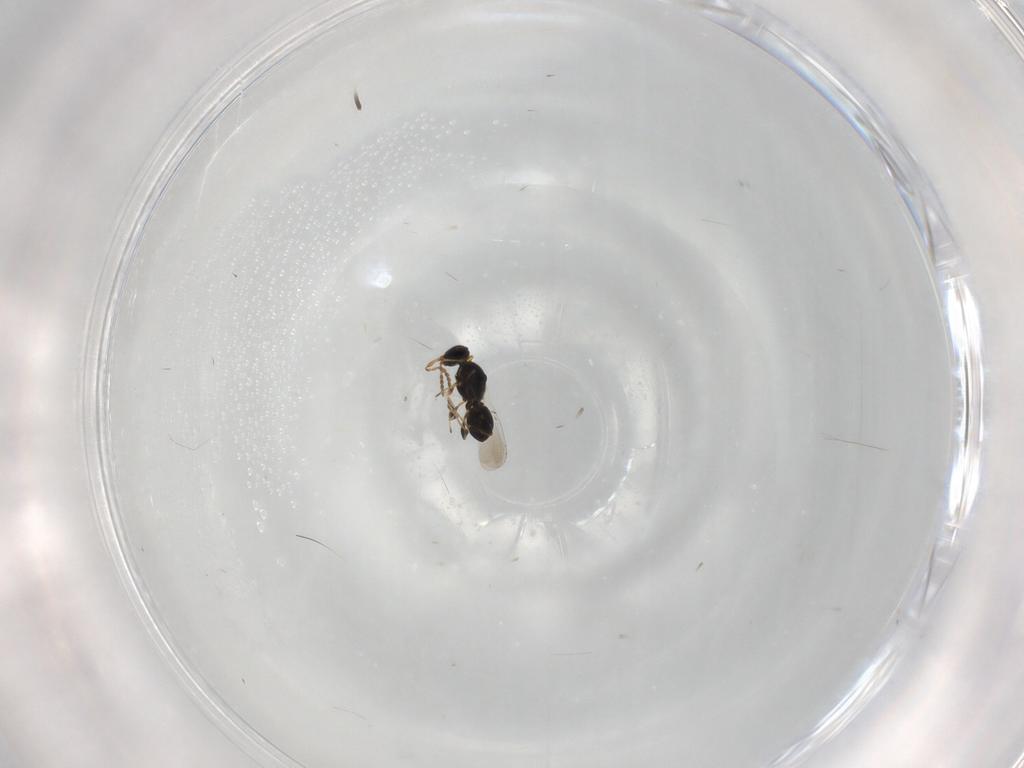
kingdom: Animalia
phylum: Arthropoda
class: Insecta
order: Hymenoptera
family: Platygastridae
